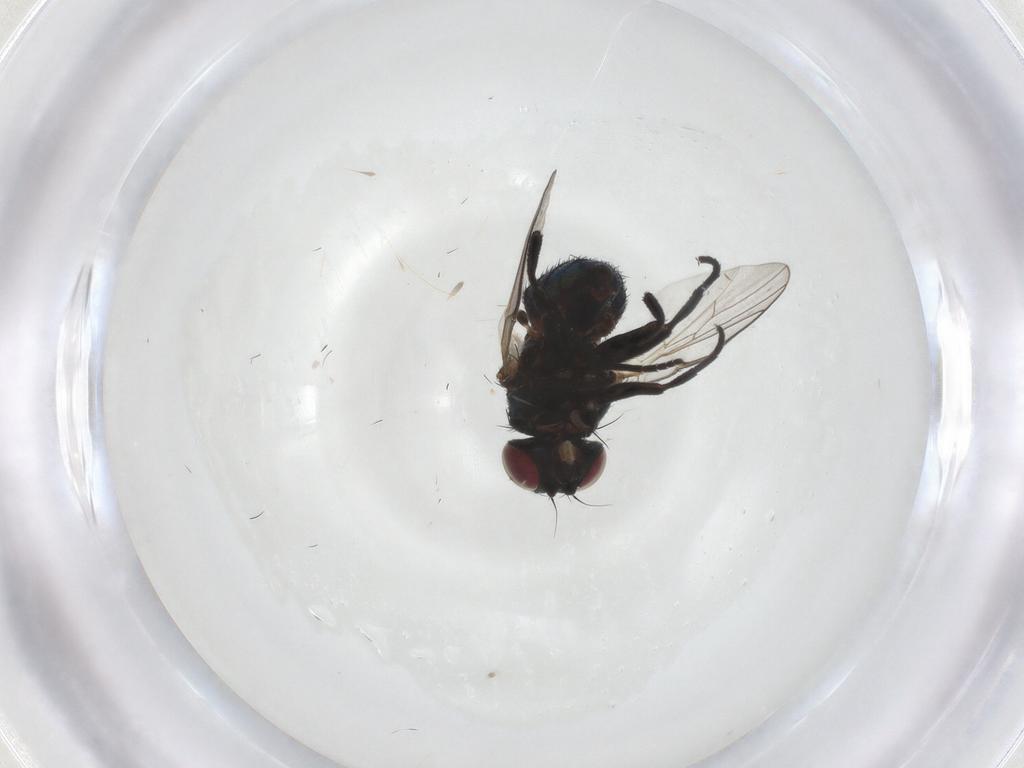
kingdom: Animalia
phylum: Arthropoda
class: Insecta
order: Diptera
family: Agromyzidae
